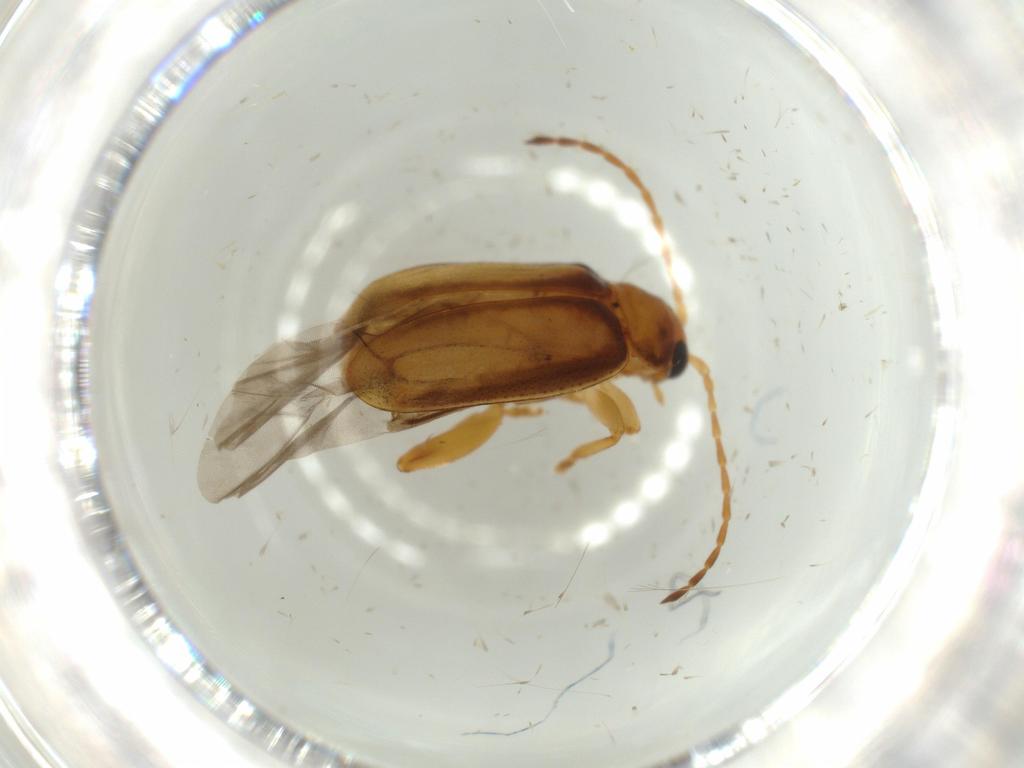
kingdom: Animalia
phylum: Arthropoda
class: Insecta
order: Coleoptera
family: Chrysomelidae
